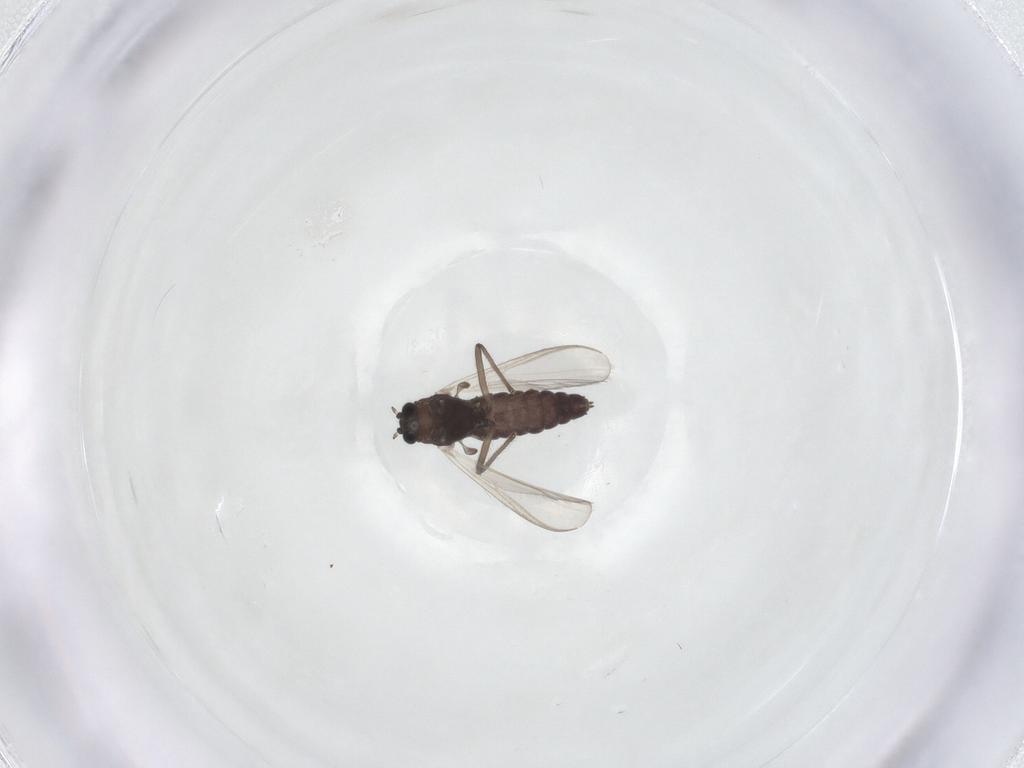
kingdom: Animalia
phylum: Arthropoda
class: Insecta
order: Diptera
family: Chironomidae
